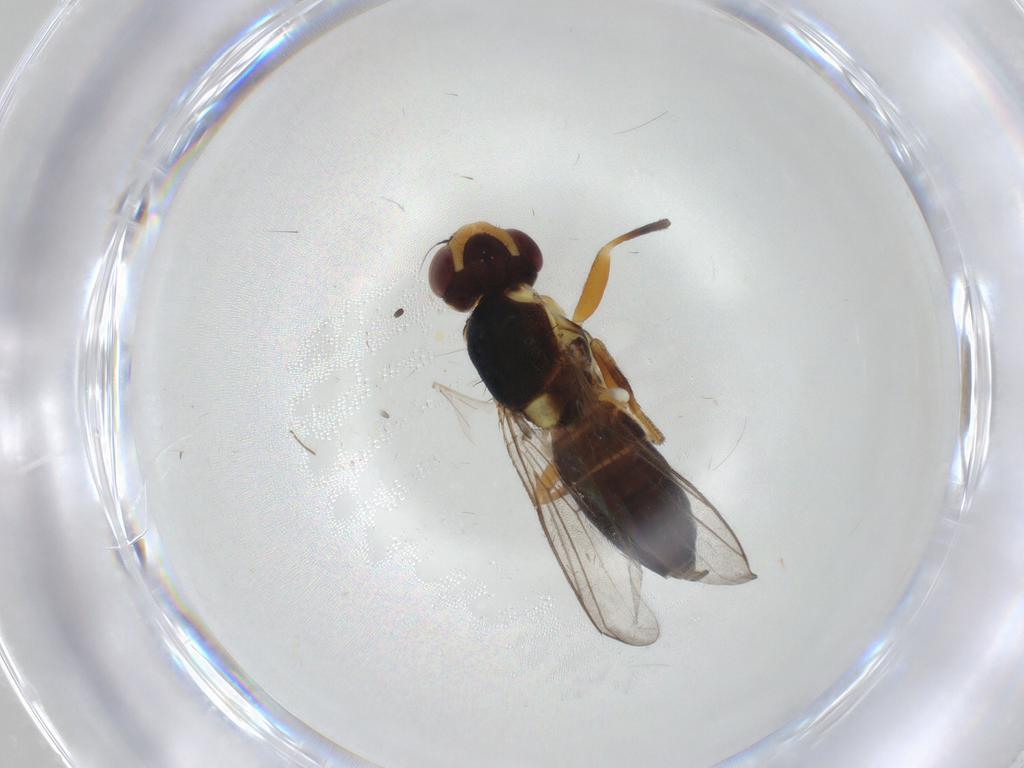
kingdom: Animalia
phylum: Arthropoda
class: Insecta
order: Diptera
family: Chloropidae
